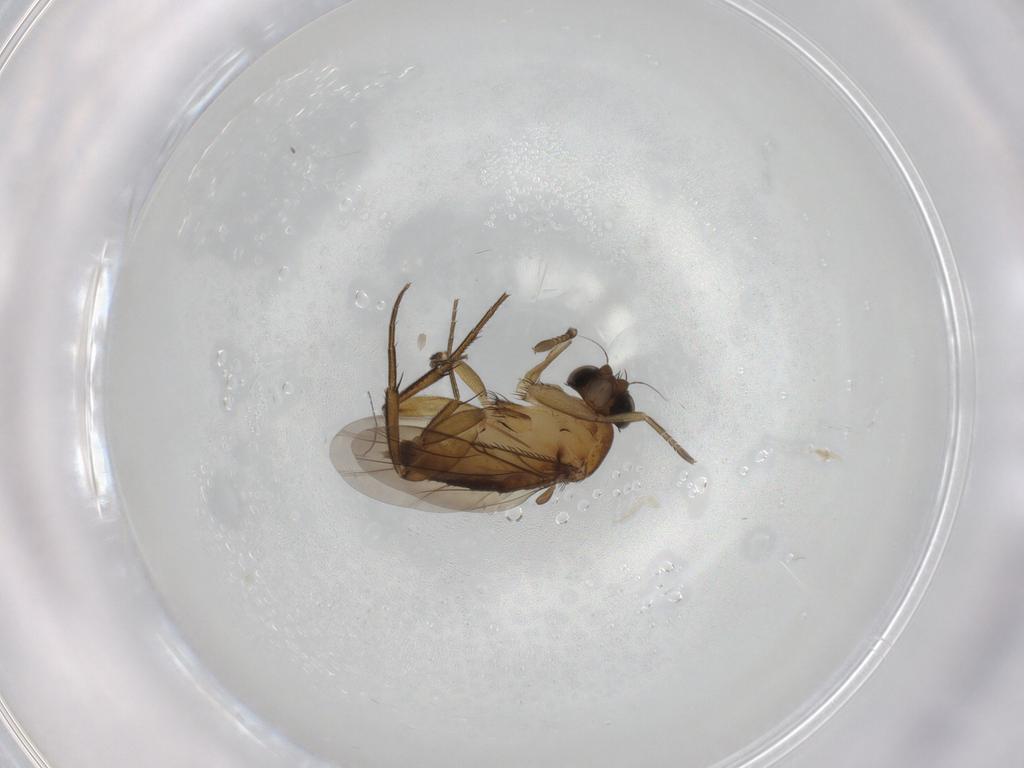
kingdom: Animalia
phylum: Arthropoda
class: Insecta
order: Diptera
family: Phoridae
